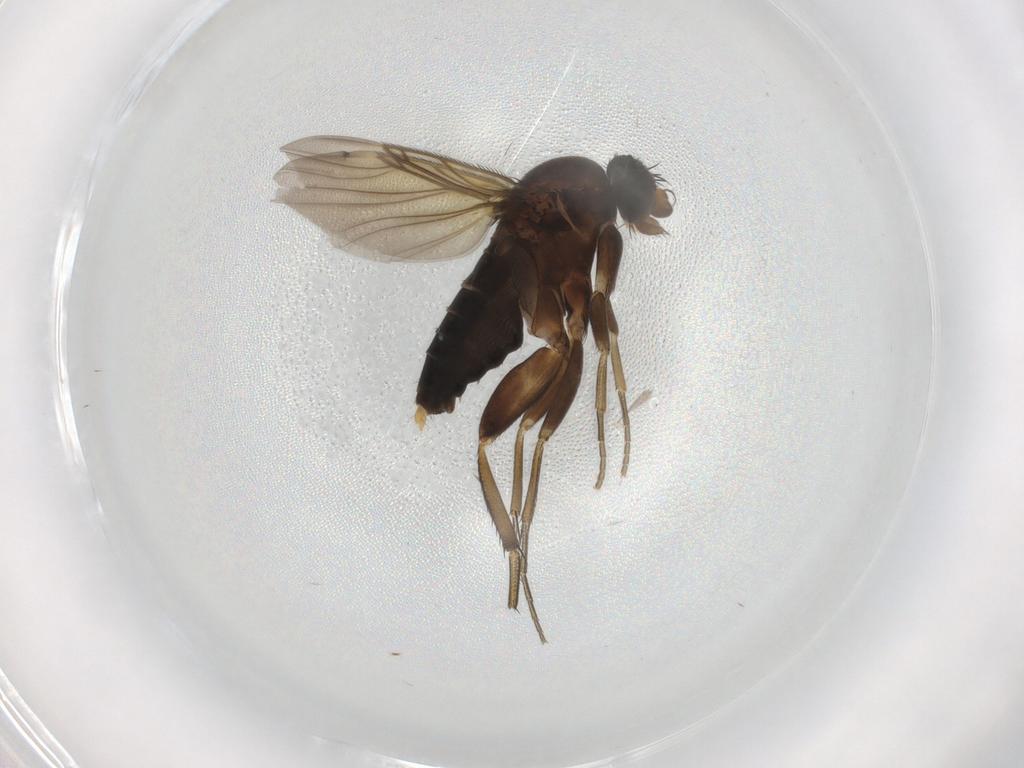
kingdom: Animalia
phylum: Arthropoda
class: Insecta
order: Diptera
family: Phoridae
